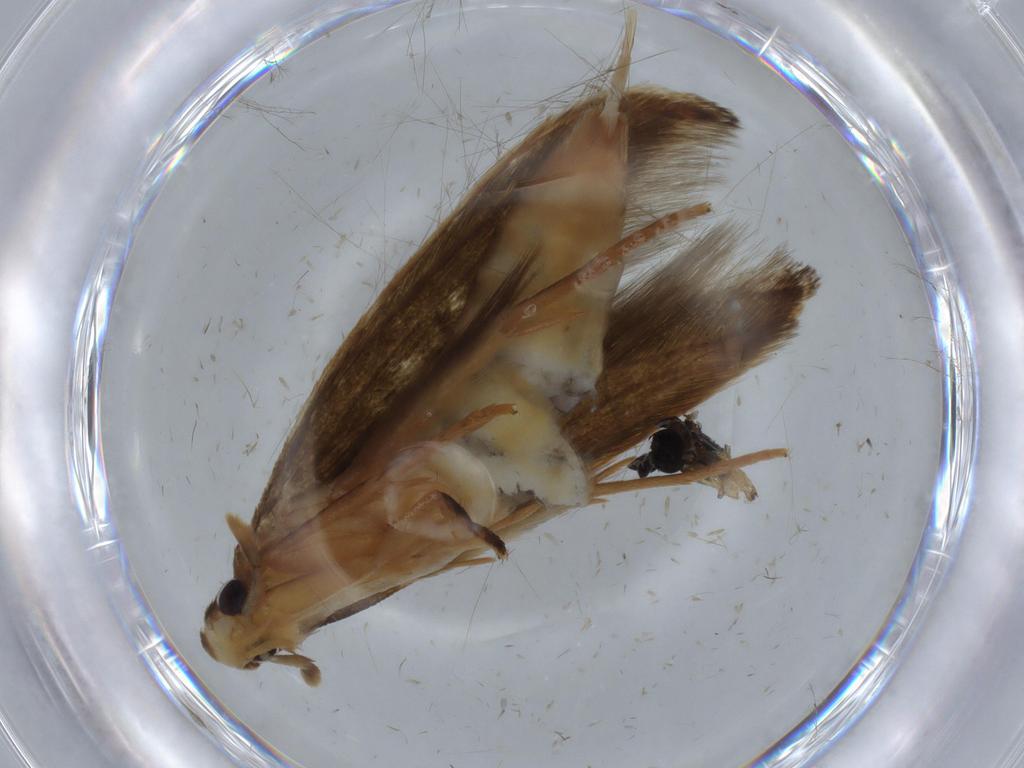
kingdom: Animalia
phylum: Arthropoda
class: Insecta
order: Lepidoptera
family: Tineidae
